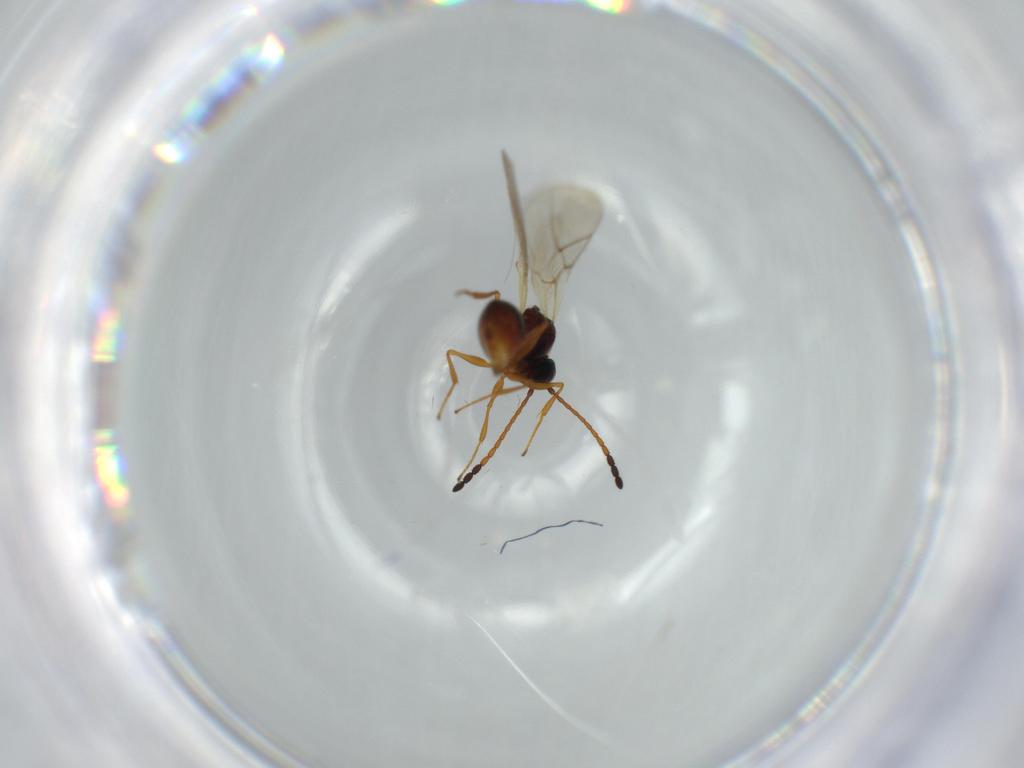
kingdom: Animalia
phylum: Arthropoda
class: Insecta
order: Hymenoptera
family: Figitidae
